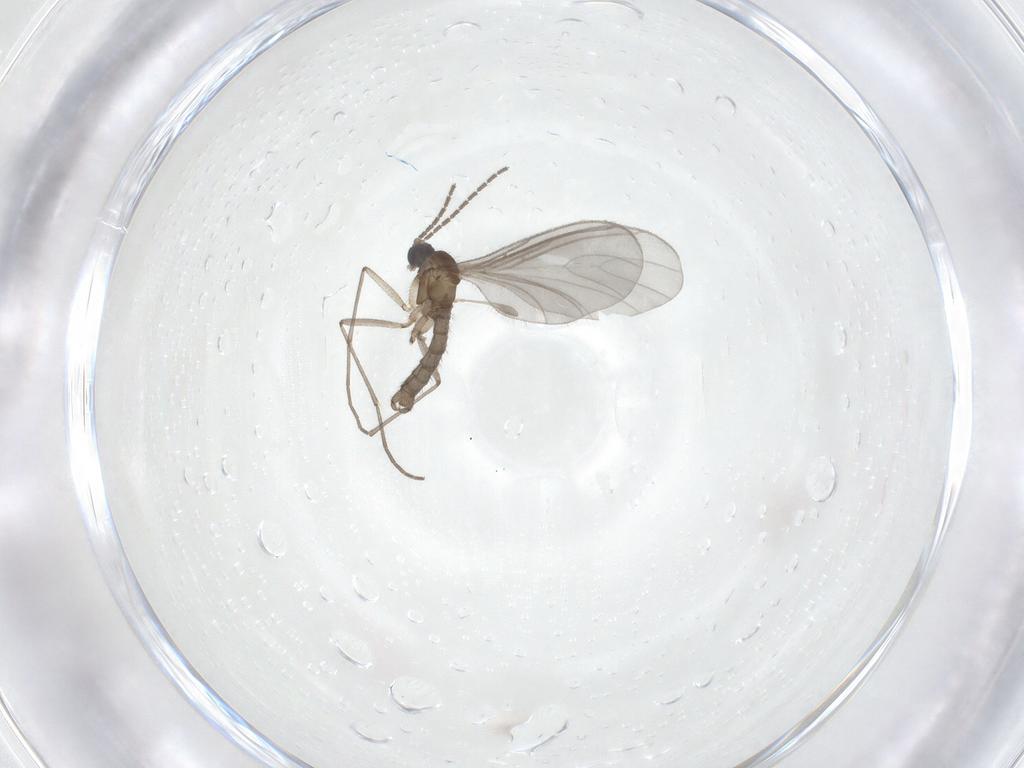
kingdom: Animalia
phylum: Arthropoda
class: Insecta
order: Diptera
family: Sciaridae
